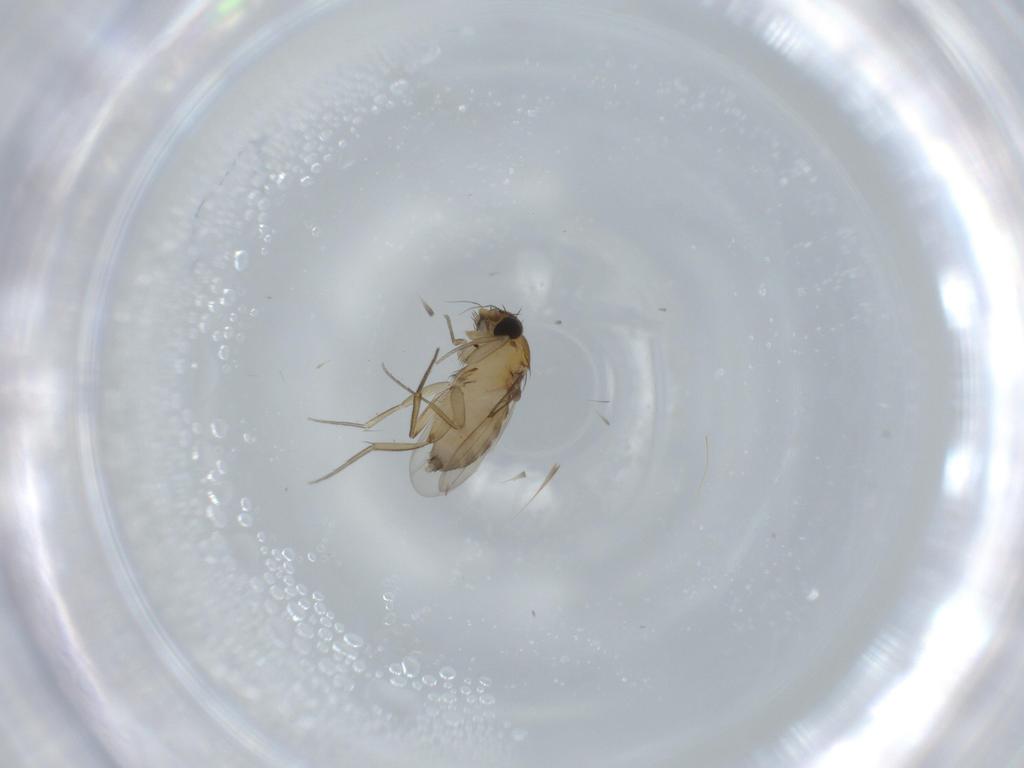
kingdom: Animalia
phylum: Arthropoda
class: Insecta
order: Diptera
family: Phoridae
